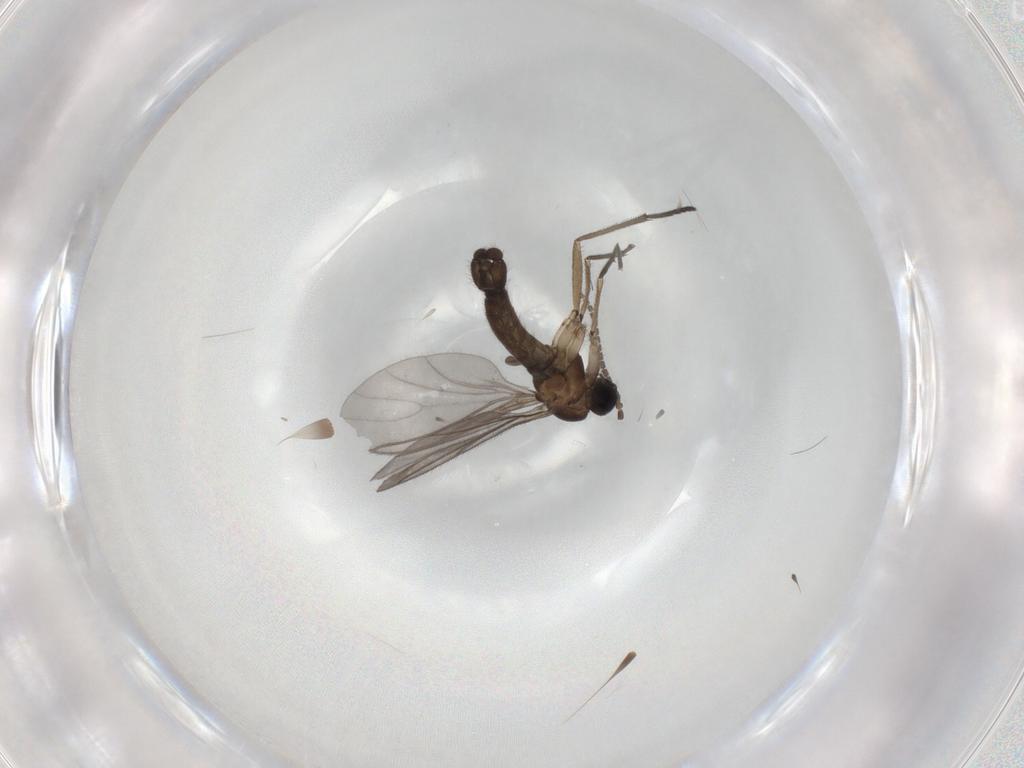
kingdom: Animalia
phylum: Arthropoda
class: Insecta
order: Diptera
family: Sciaridae
